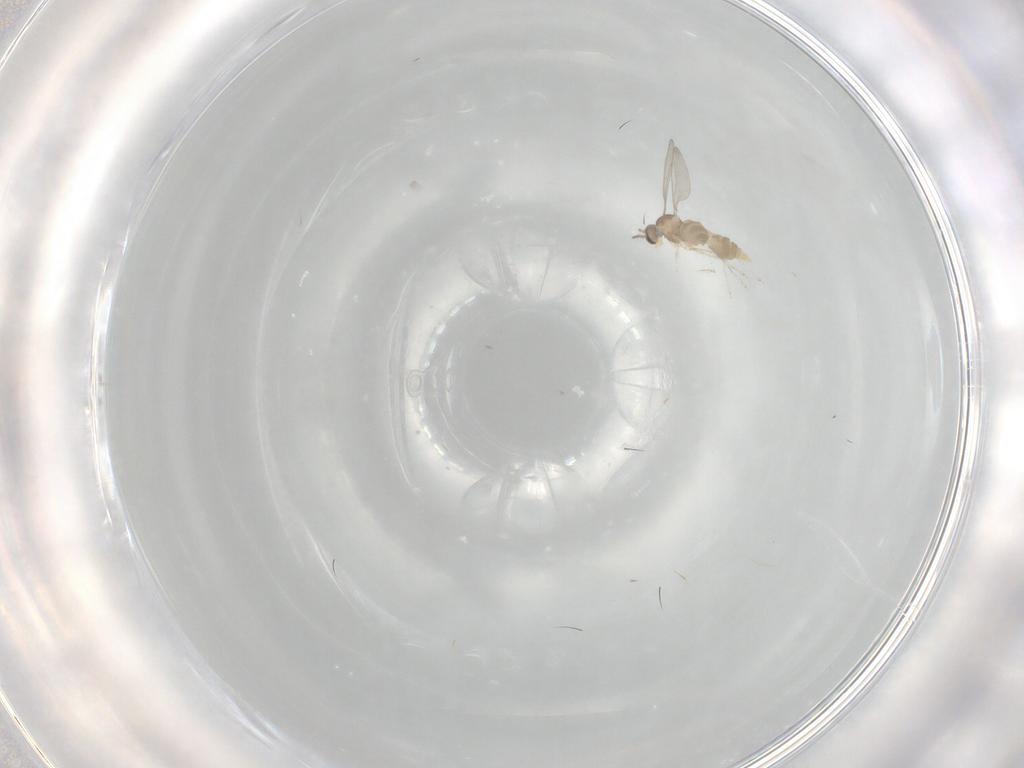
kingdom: Animalia
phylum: Arthropoda
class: Insecta
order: Diptera
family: Cecidomyiidae
